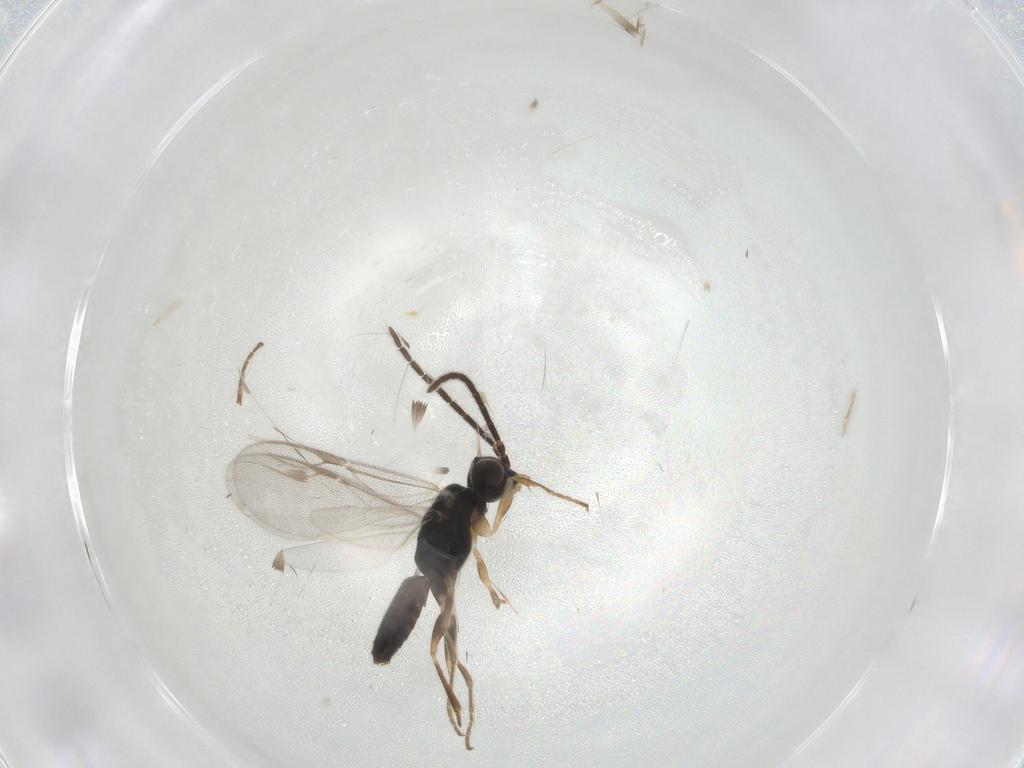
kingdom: Animalia
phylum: Arthropoda
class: Insecta
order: Hymenoptera
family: Dryinidae
